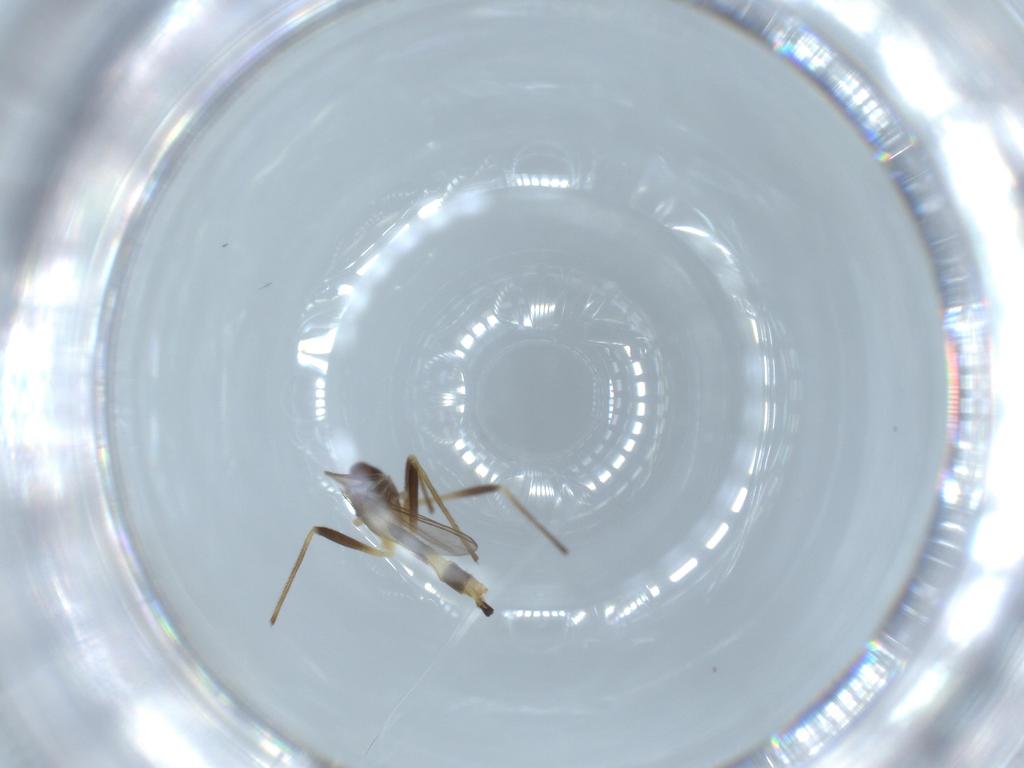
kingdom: Animalia
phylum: Arthropoda
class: Insecta
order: Diptera
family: Chironomidae
